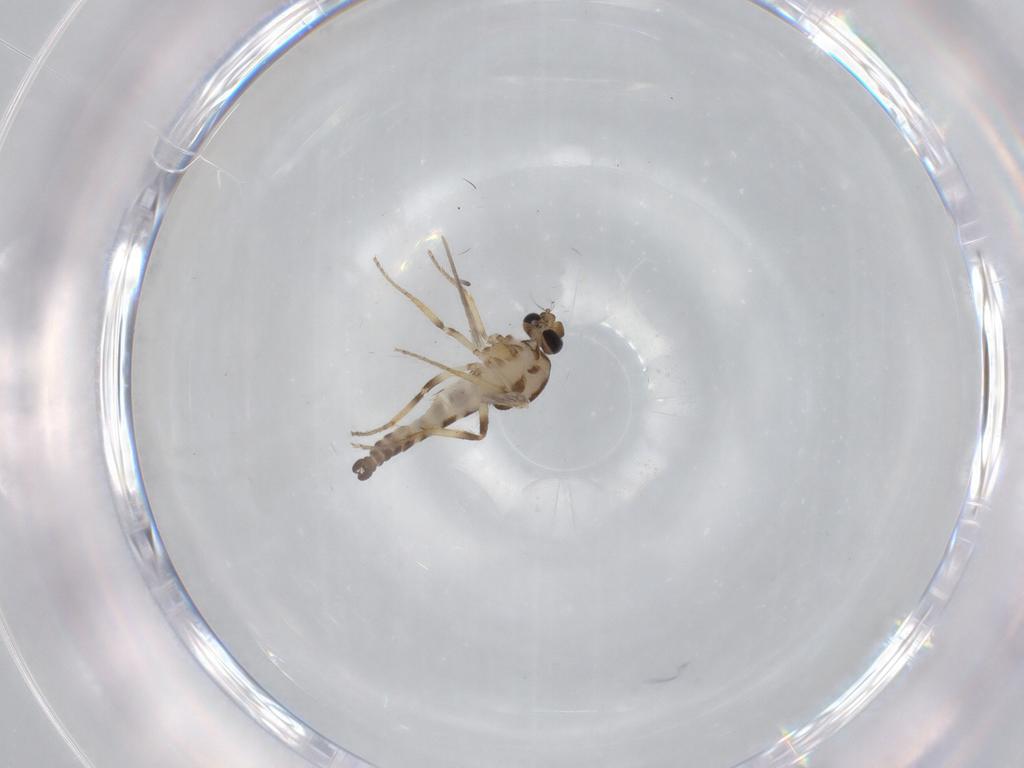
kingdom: Animalia
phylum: Arthropoda
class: Insecta
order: Diptera
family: Ceratopogonidae
